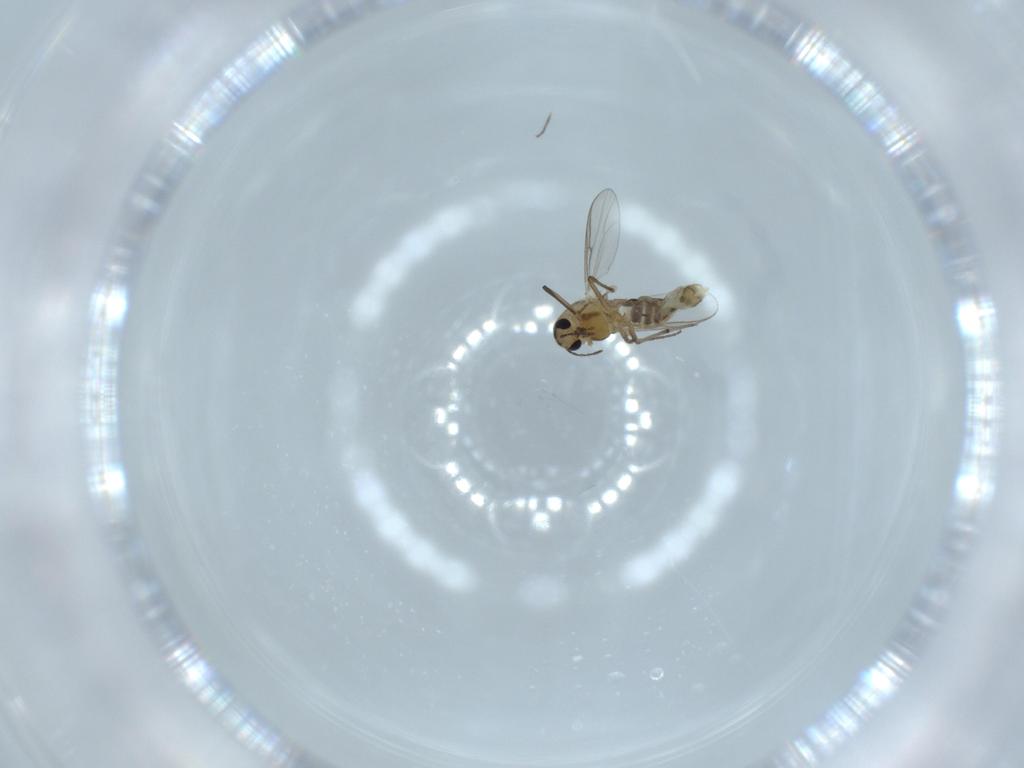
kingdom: Animalia
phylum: Arthropoda
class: Insecta
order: Diptera
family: Chironomidae
